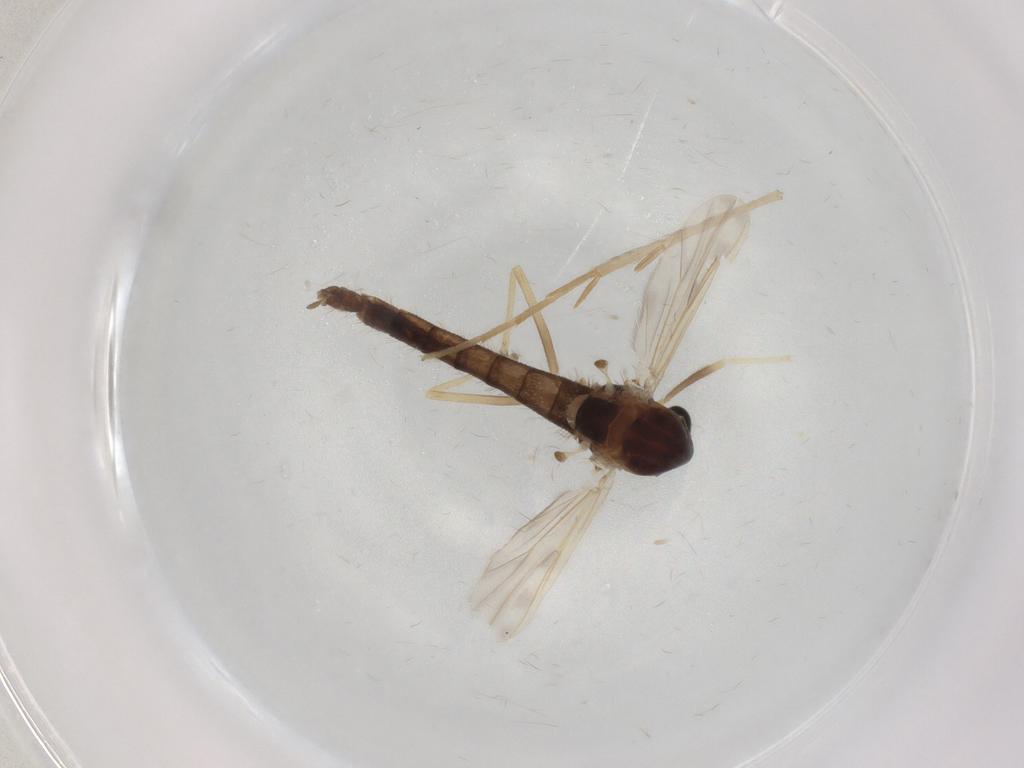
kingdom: Animalia
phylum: Arthropoda
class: Insecta
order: Diptera
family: Chironomidae
